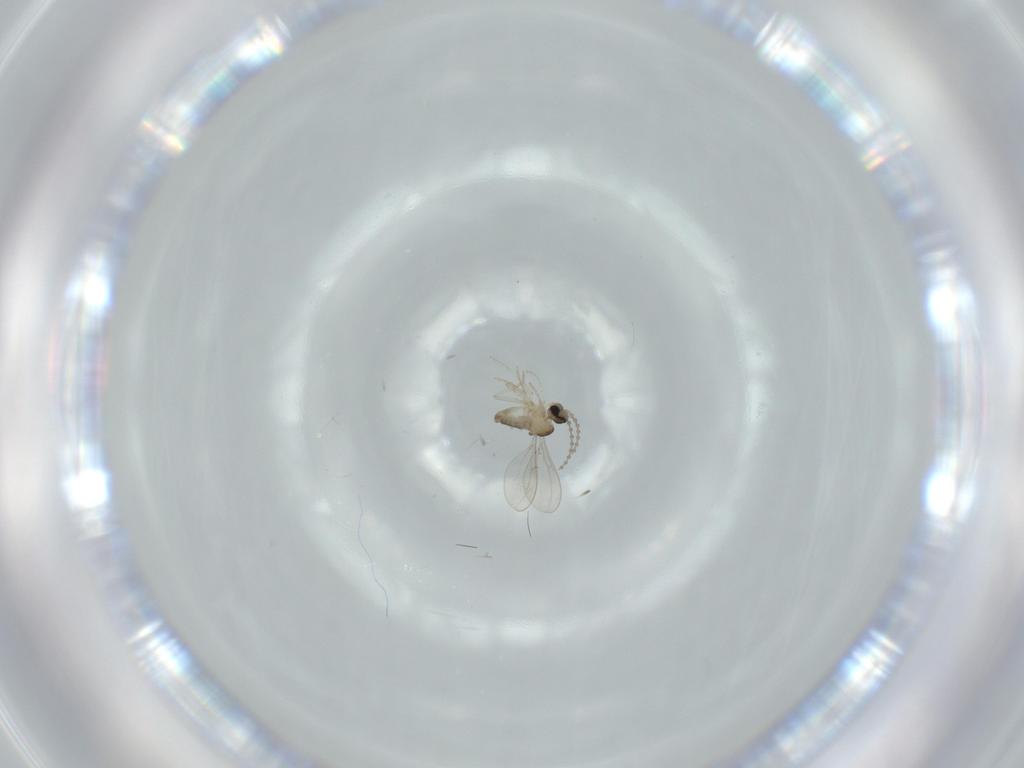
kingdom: Animalia
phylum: Arthropoda
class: Insecta
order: Diptera
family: Cecidomyiidae
